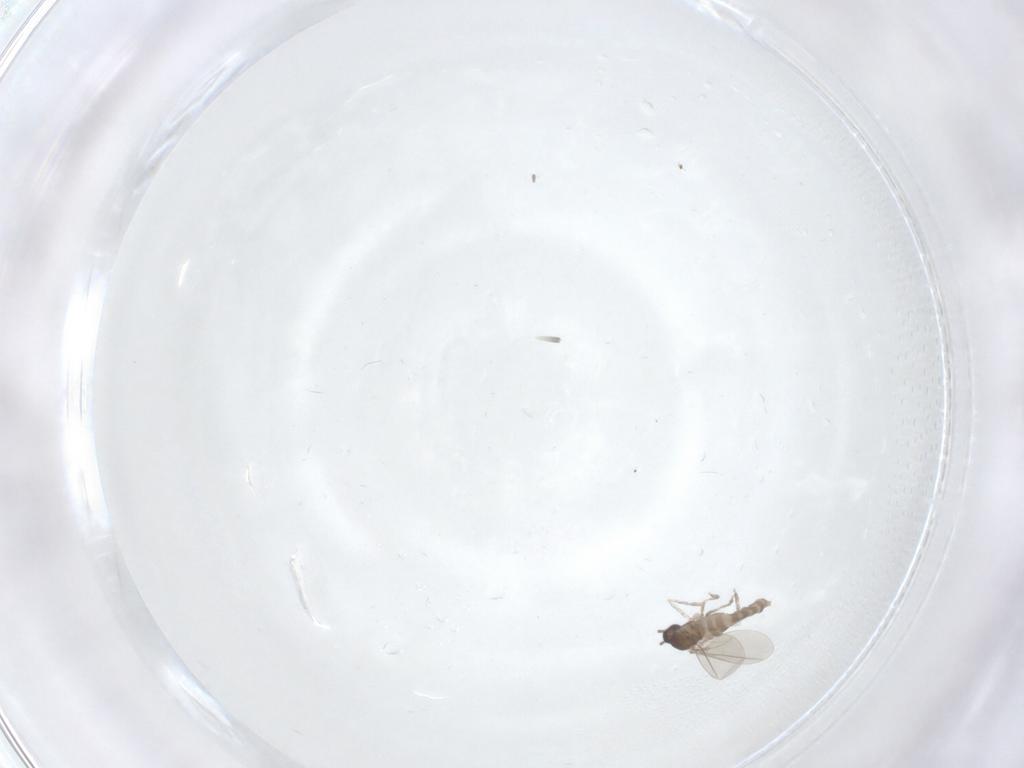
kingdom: Animalia
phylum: Arthropoda
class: Insecta
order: Diptera
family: Cecidomyiidae
